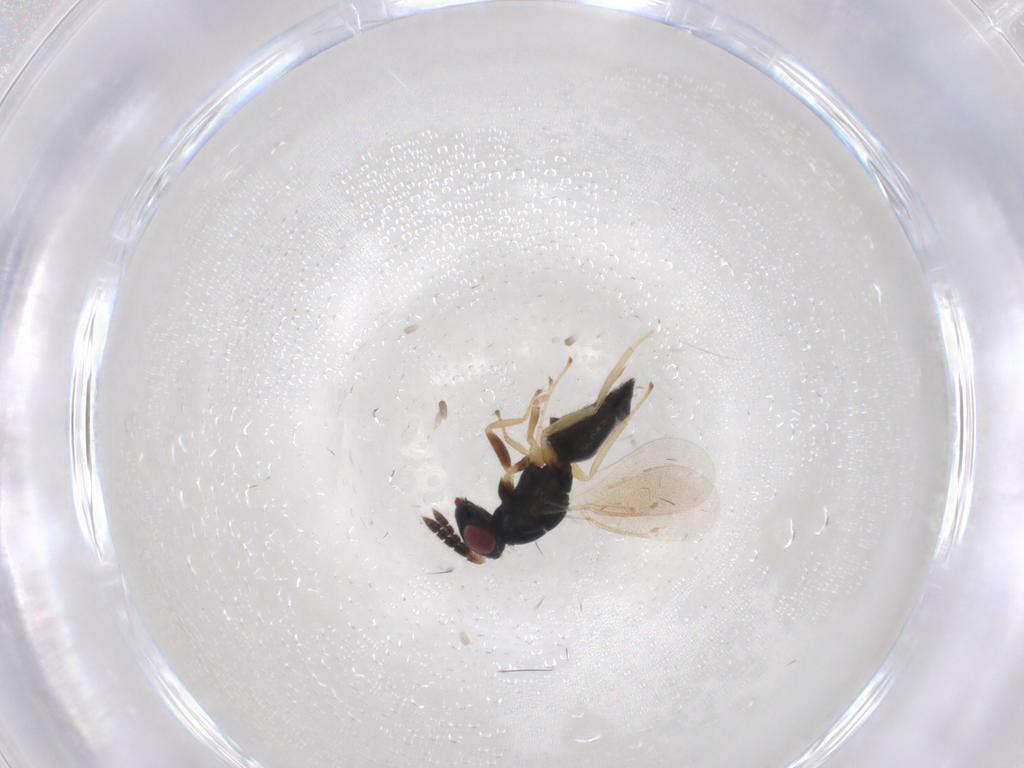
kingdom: Animalia
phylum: Arthropoda
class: Insecta
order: Hymenoptera
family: Eulophidae
